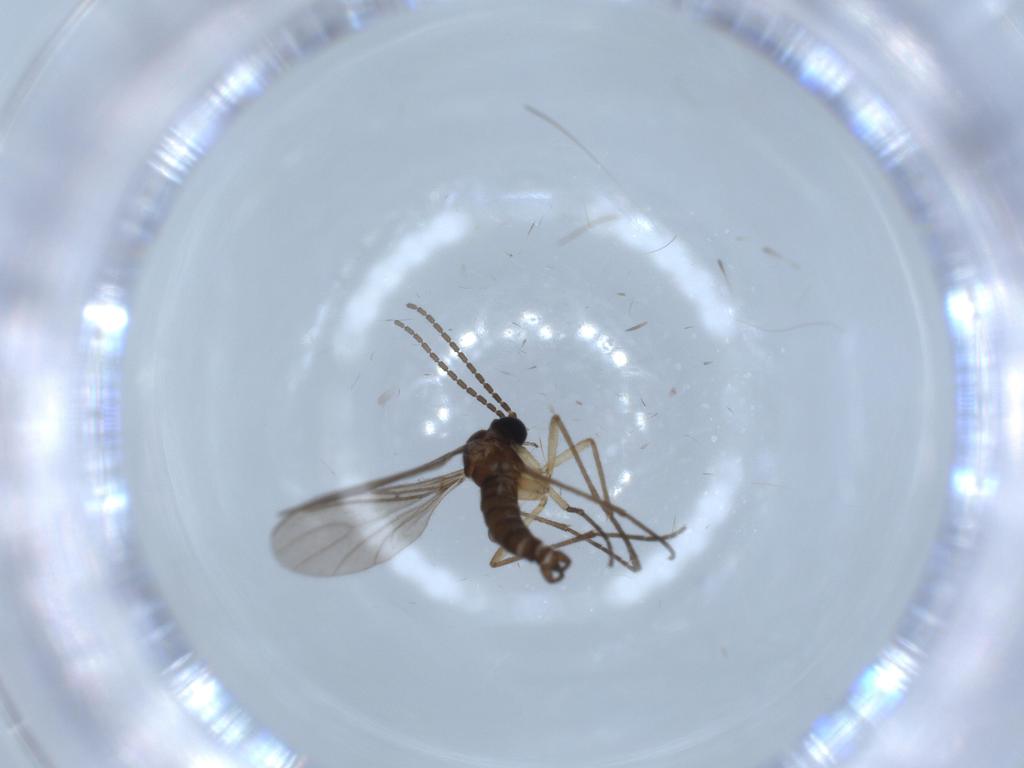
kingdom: Animalia
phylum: Arthropoda
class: Insecta
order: Diptera
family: Sciaridae
